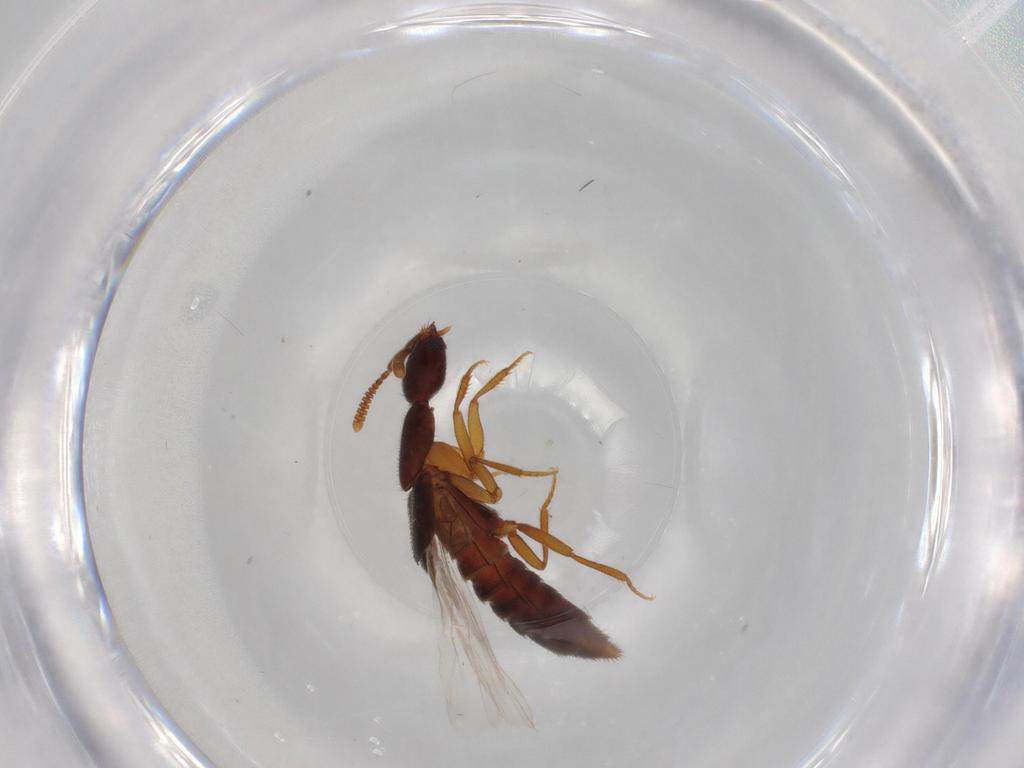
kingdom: Animalia
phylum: Arthropoda
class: Insecta
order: Coleoptera
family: Staphylinidae
